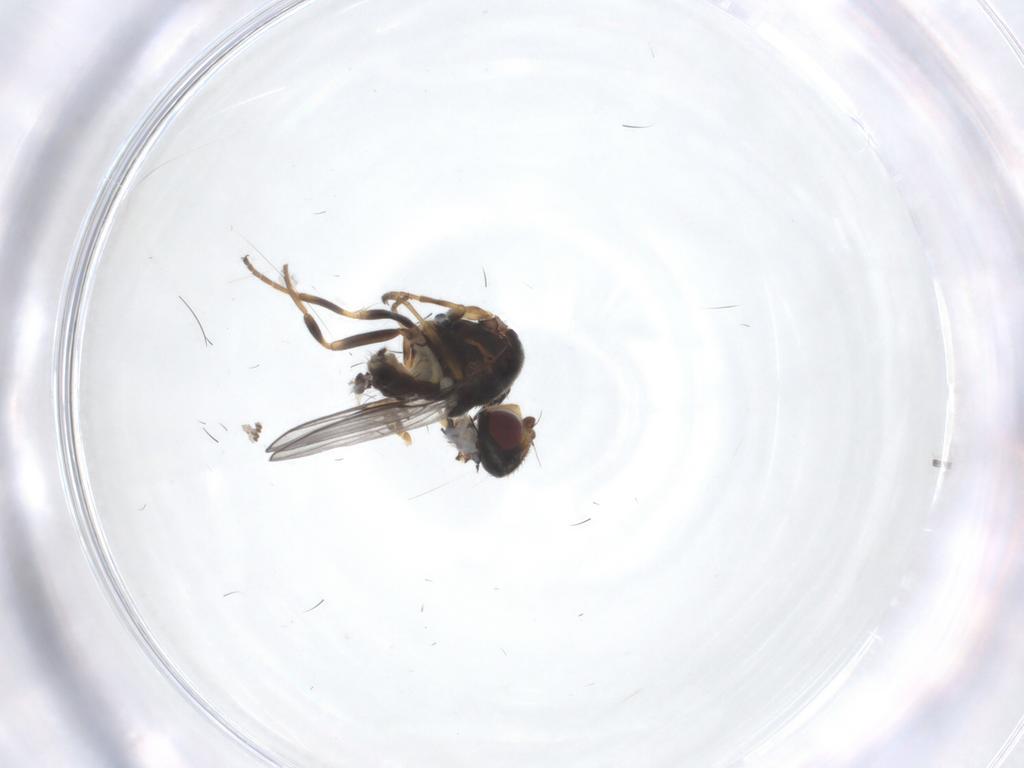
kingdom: Animalia
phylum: Arthropoda
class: Insecta
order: Diptera
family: Chloropidae
